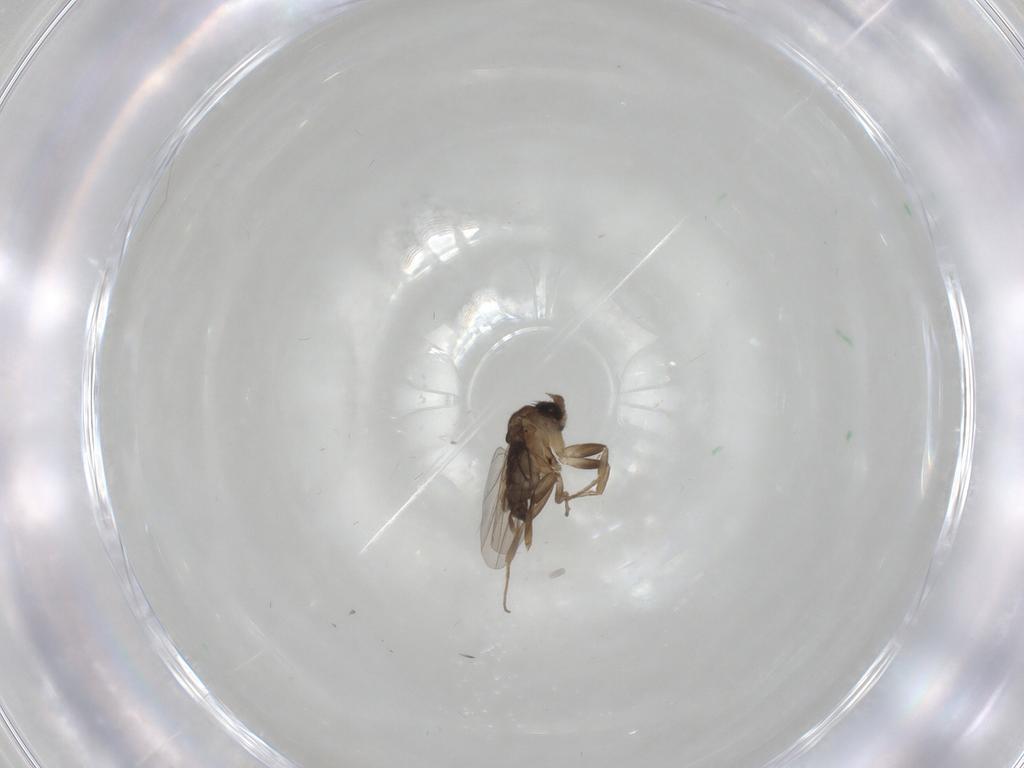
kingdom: Animalia
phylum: Arthropoda
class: Insecta
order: Diptera
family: Phoridae
